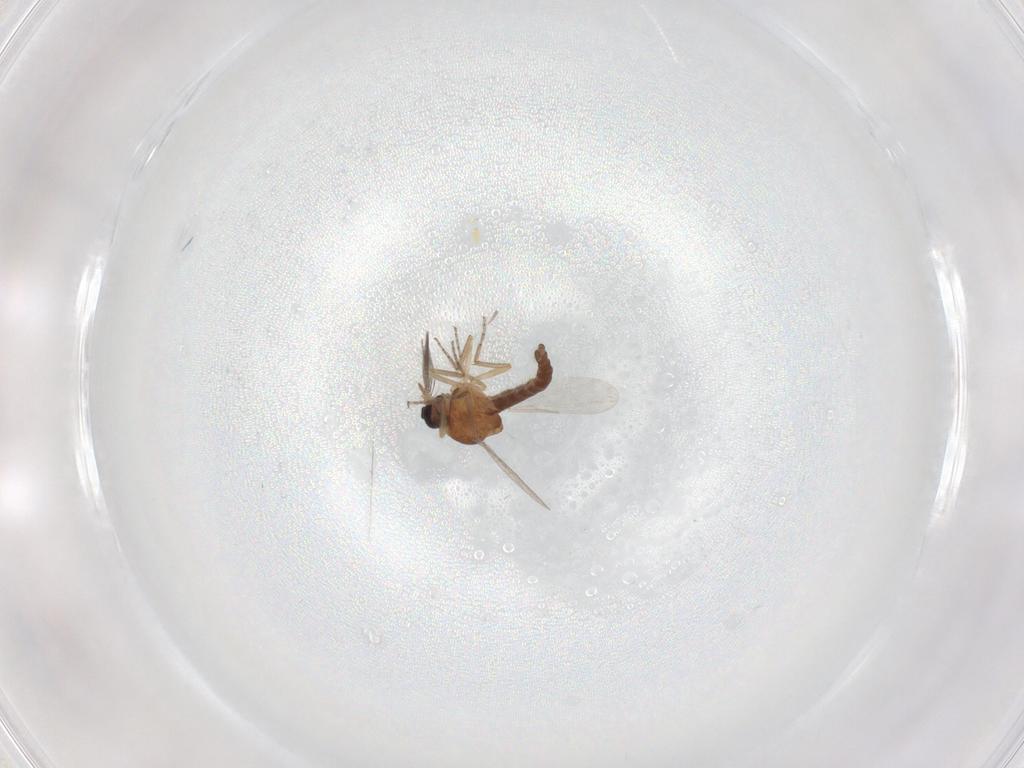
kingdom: Animalia
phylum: Arthropoda
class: Insecta
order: Diptera
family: Ceratopogonidae
